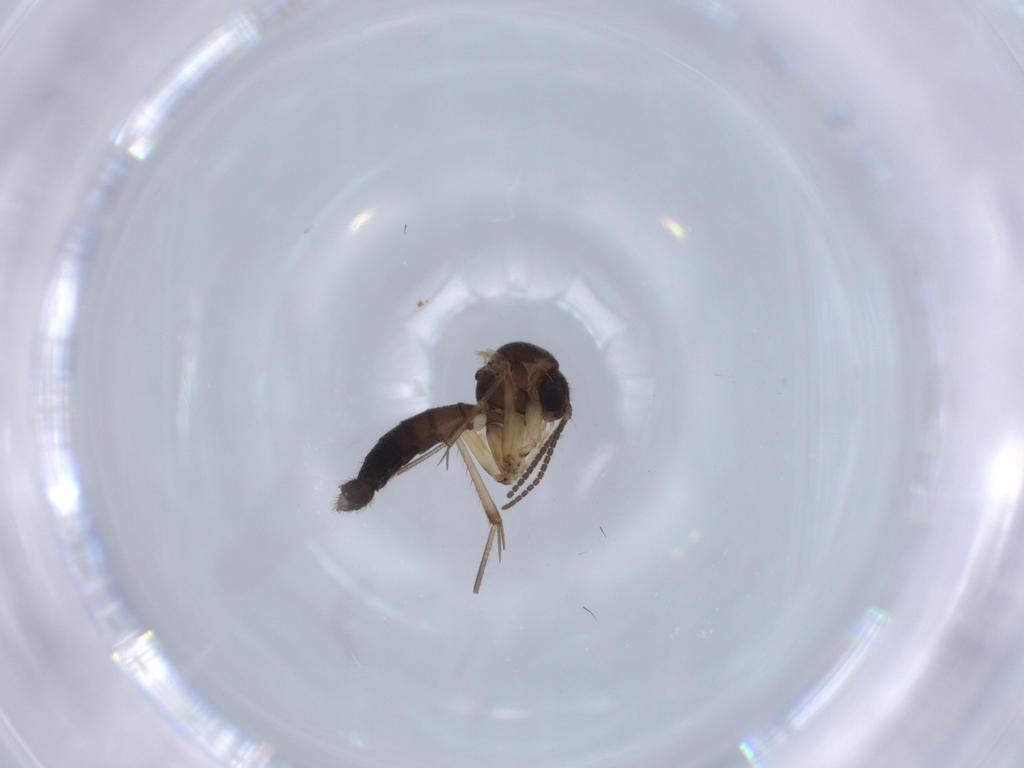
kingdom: Animalia
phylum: Arthropoda
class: Insecta
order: Diptera
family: Mycetophilidae
